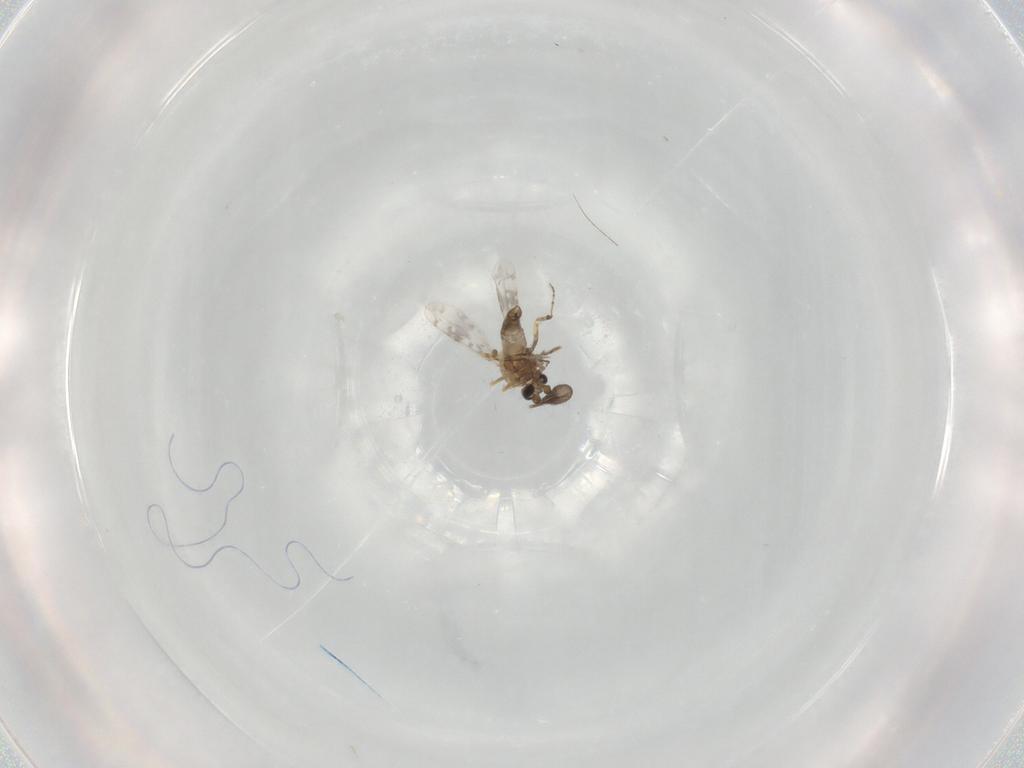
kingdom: Animalia
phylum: Arthropoda
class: Insecta
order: Diptera
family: Ceratopogonidae
